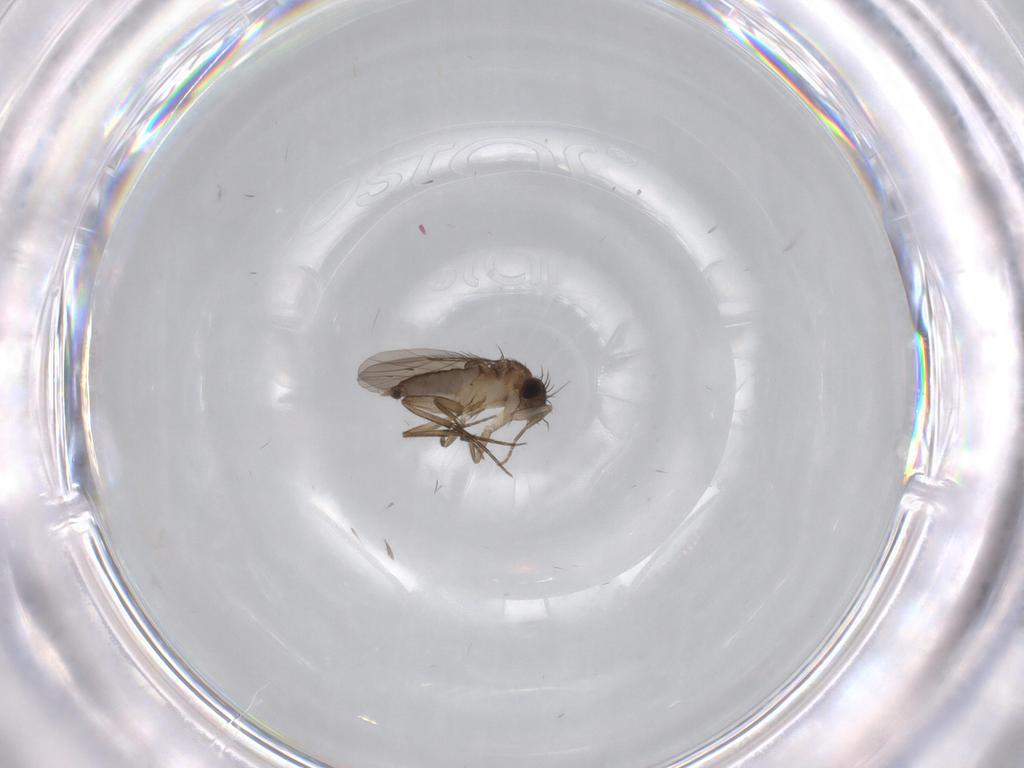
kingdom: Animalia
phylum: Arthropoda
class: Insecta
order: Diptera
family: Phoridae
